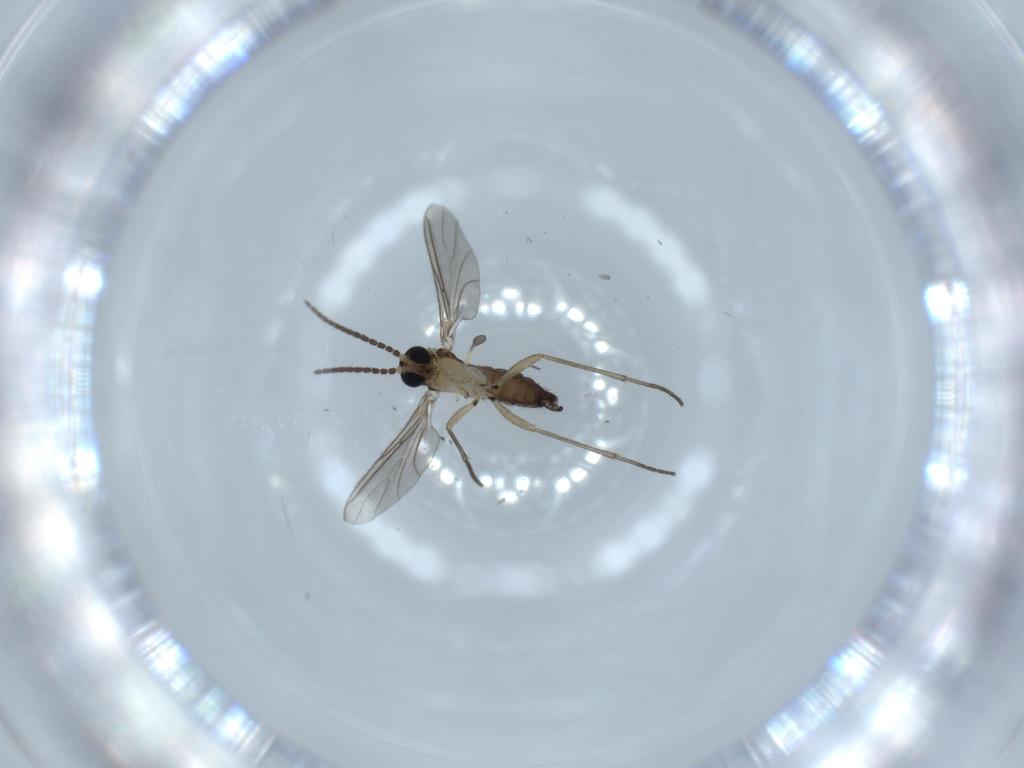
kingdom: Animalia
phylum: Arthropoda
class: Insecta
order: Diptera
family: Sciaridae
